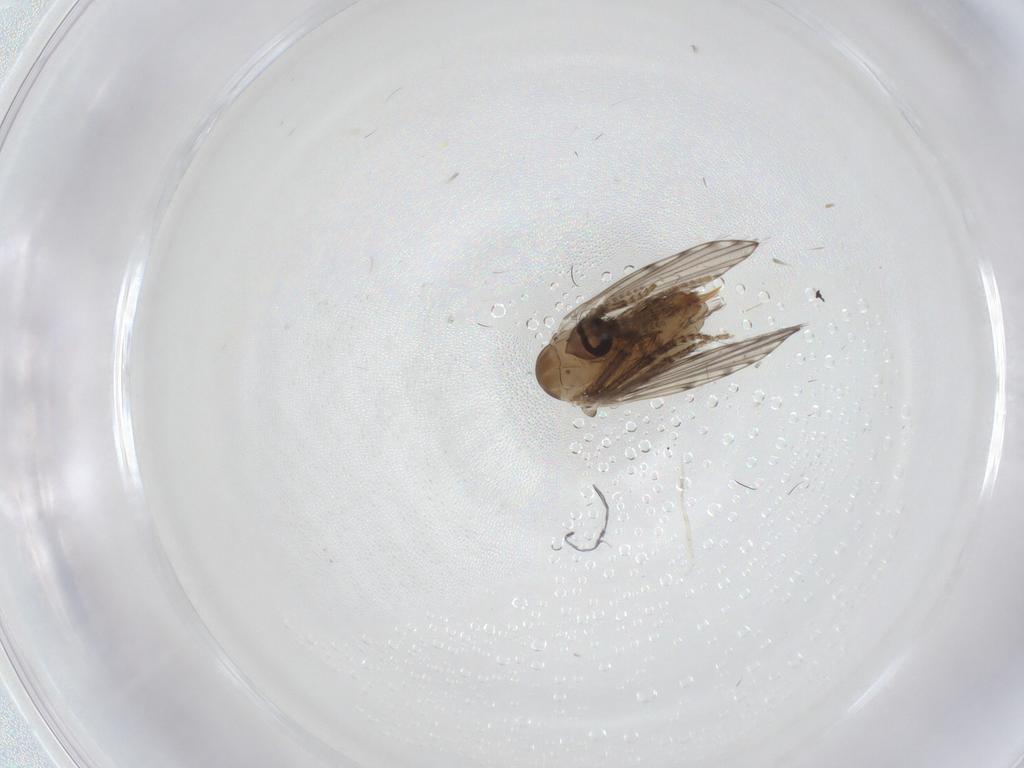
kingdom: Animalia
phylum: Arthropoda
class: Insecta
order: Diptera
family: Psychodidae
